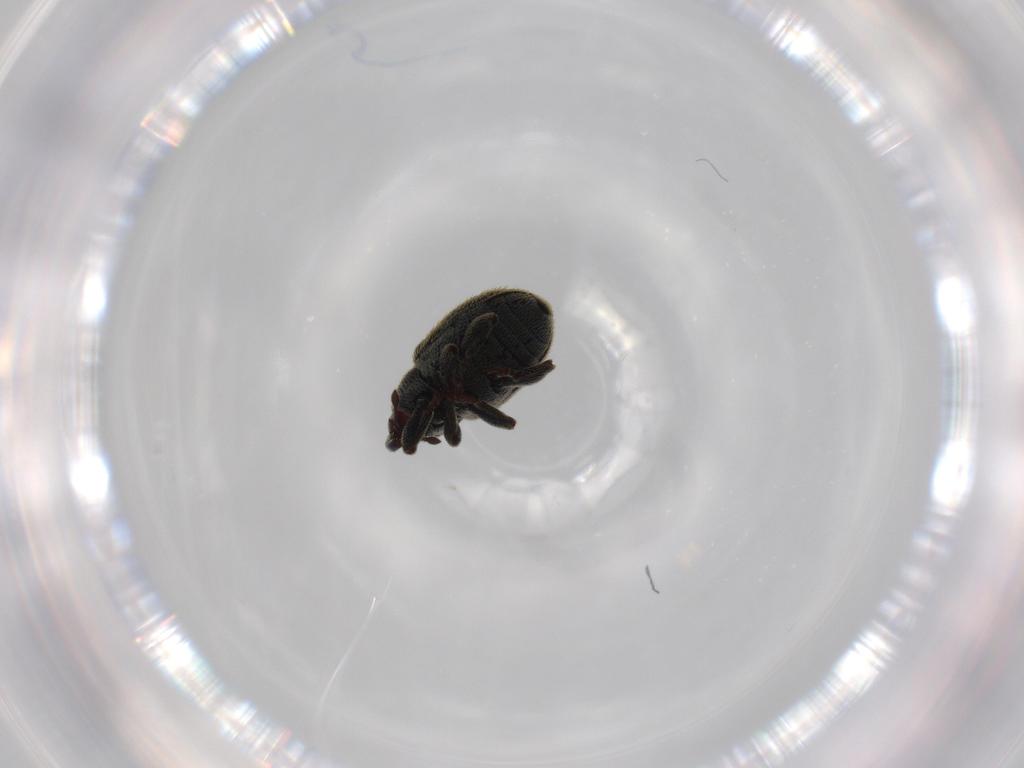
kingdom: Animalia
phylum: Arthropoda
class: Insecta
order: Coleoptera
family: Curculionidae
